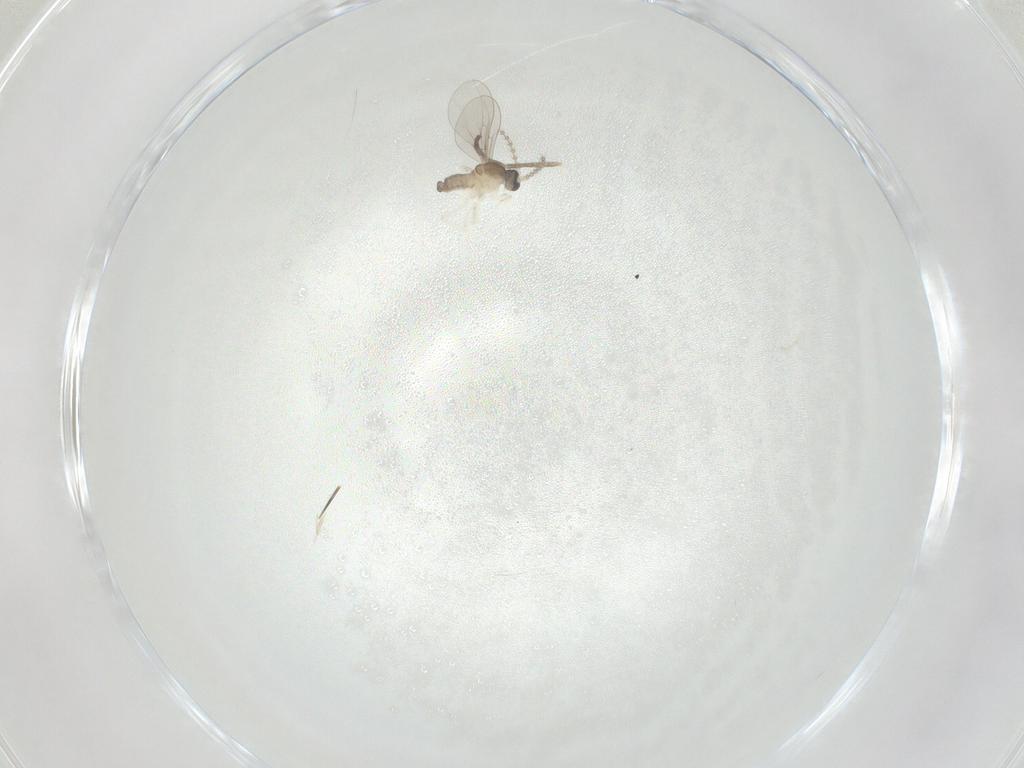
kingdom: Animalia
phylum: Arthropoda
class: Insecta
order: Diptera
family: Cecidomyiidae
